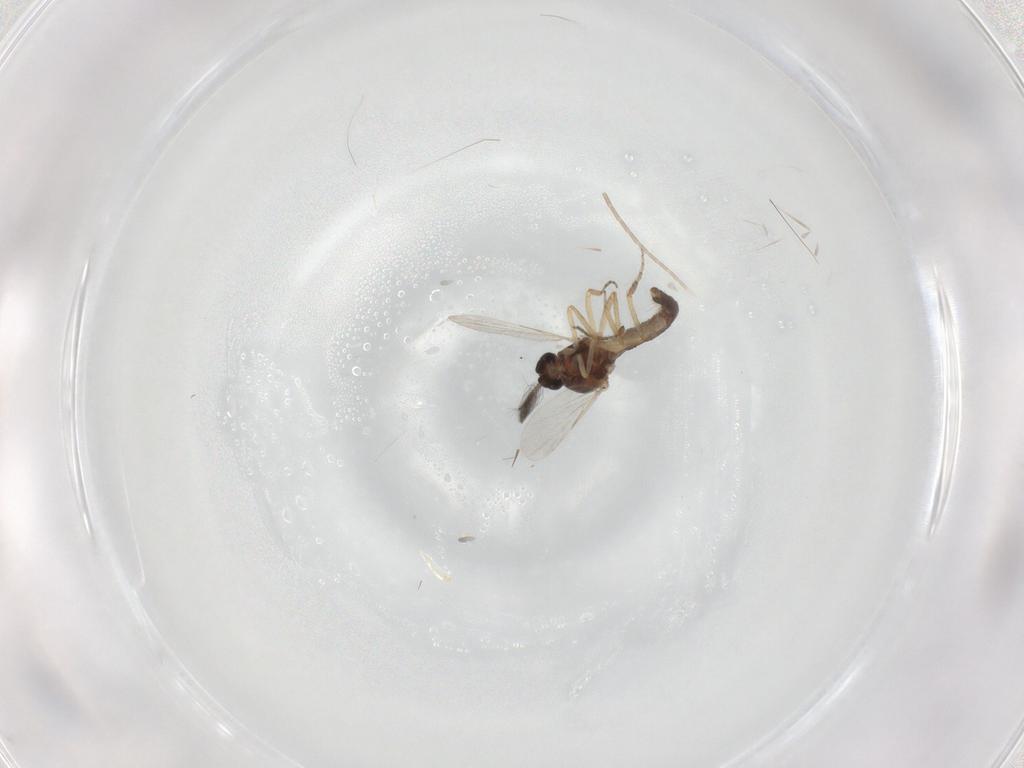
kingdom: Animalia
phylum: Arthropoda
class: Insecta
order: Diptera
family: Ceratopogonidae
